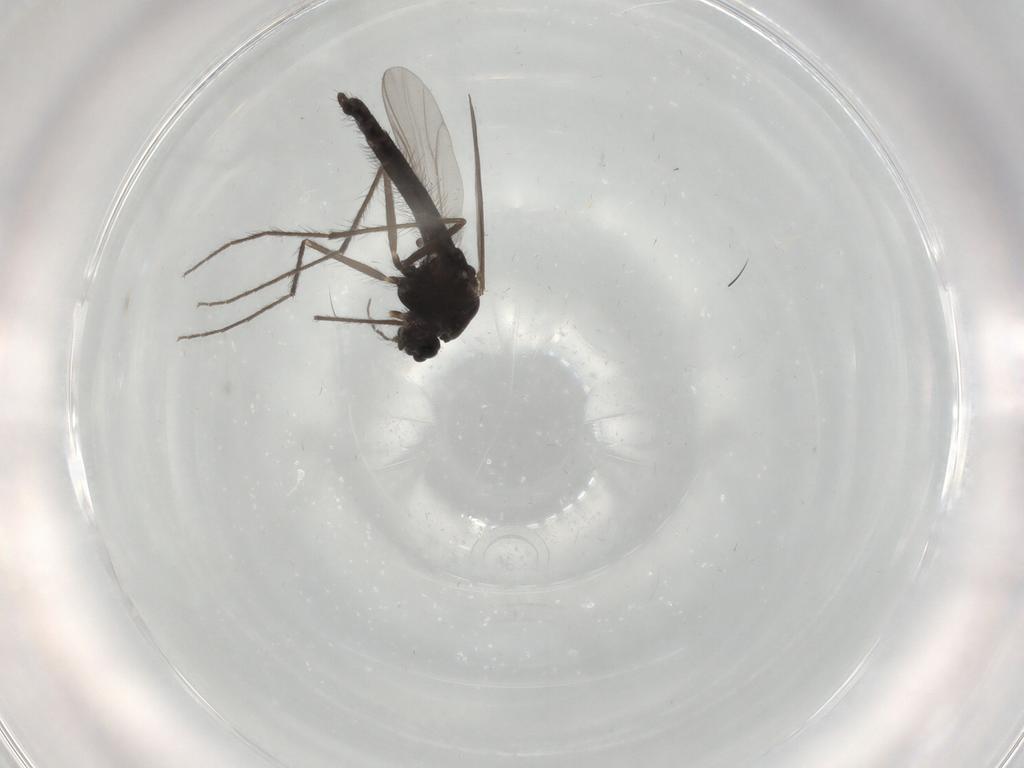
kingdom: Animalia
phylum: Arthropoda
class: Insecta
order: Diptera
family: Chironomidae
